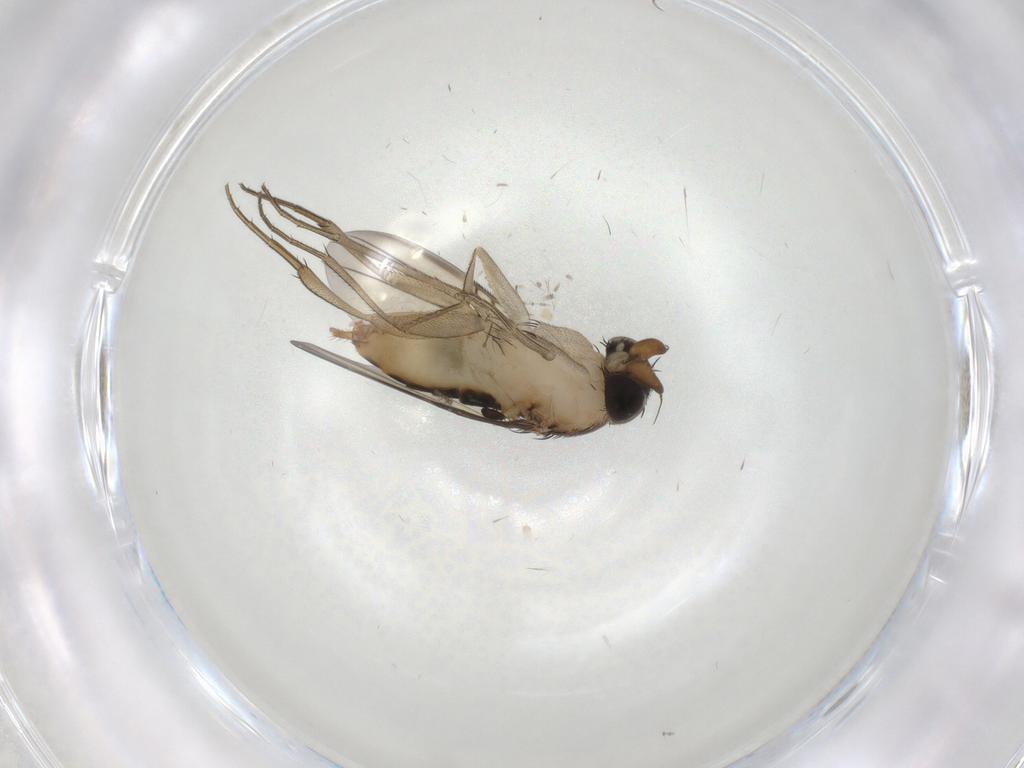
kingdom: Animalia
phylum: Arthropoda
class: Insecta
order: Diptera
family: Phoridae
